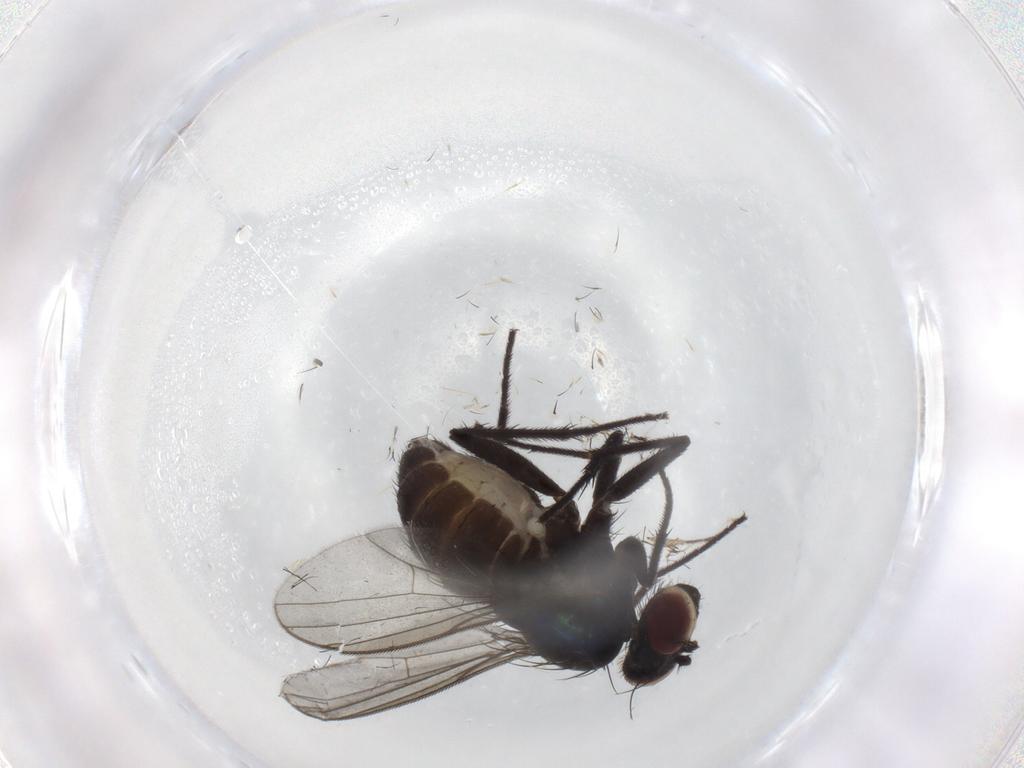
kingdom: Animalia
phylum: Arthropoda
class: Insecta
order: Diptera
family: Dolichopodidae
